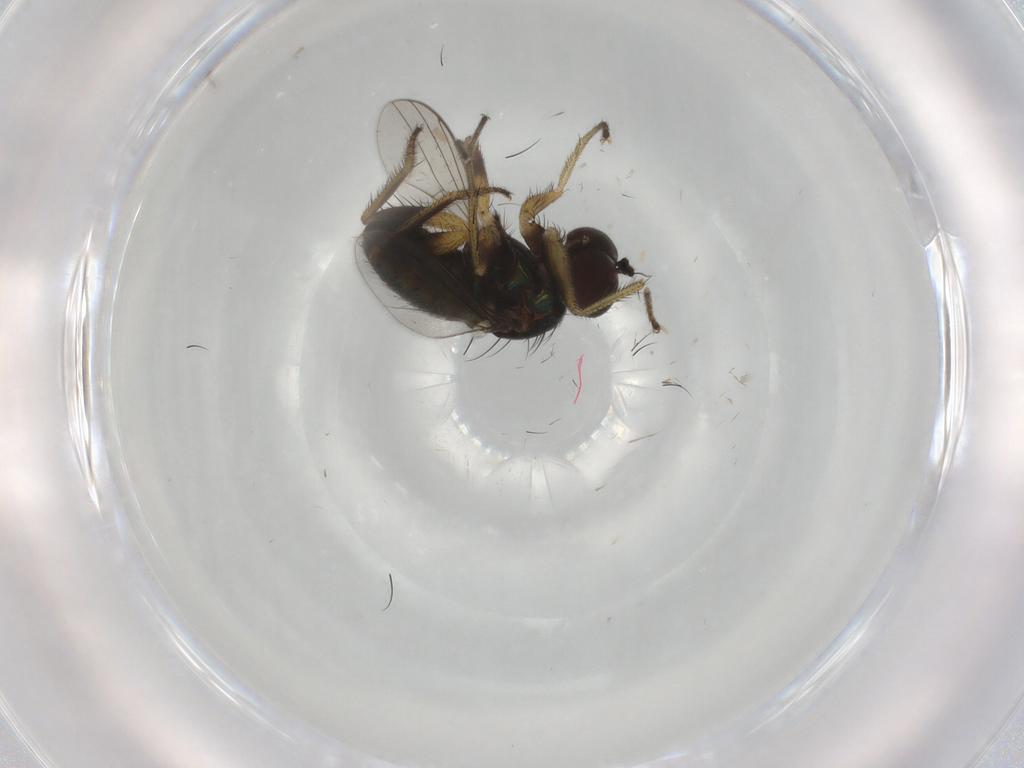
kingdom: Animalia
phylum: Arthropoda
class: Insecta
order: Diptera
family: Dolichopodidae
